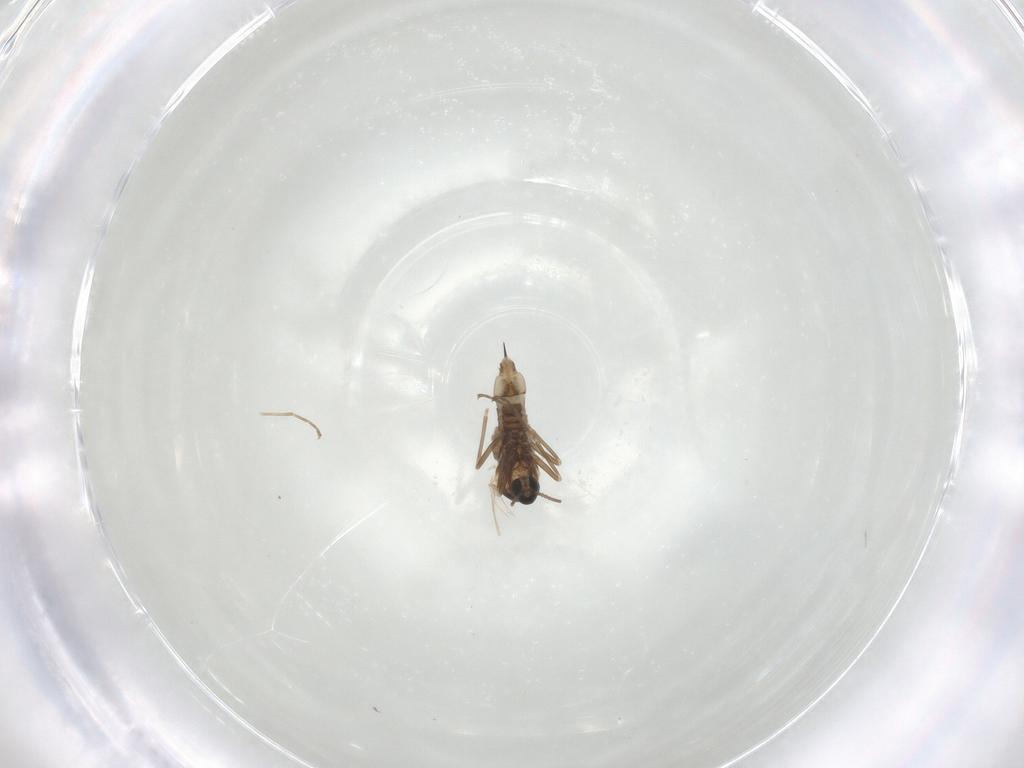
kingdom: Animalia
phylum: Arthropoda
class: Insecta
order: Diptera
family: Cecidomyiidae
